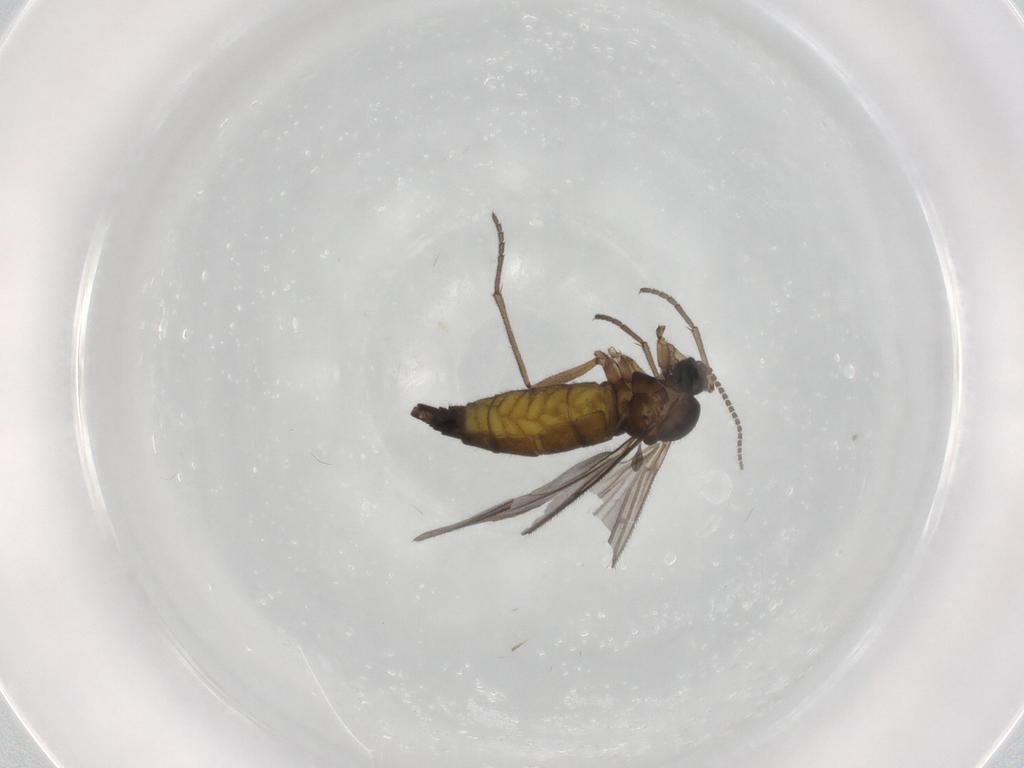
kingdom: Animalia
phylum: Arthropoda
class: Insecta
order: Diptera
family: Sciaridae
